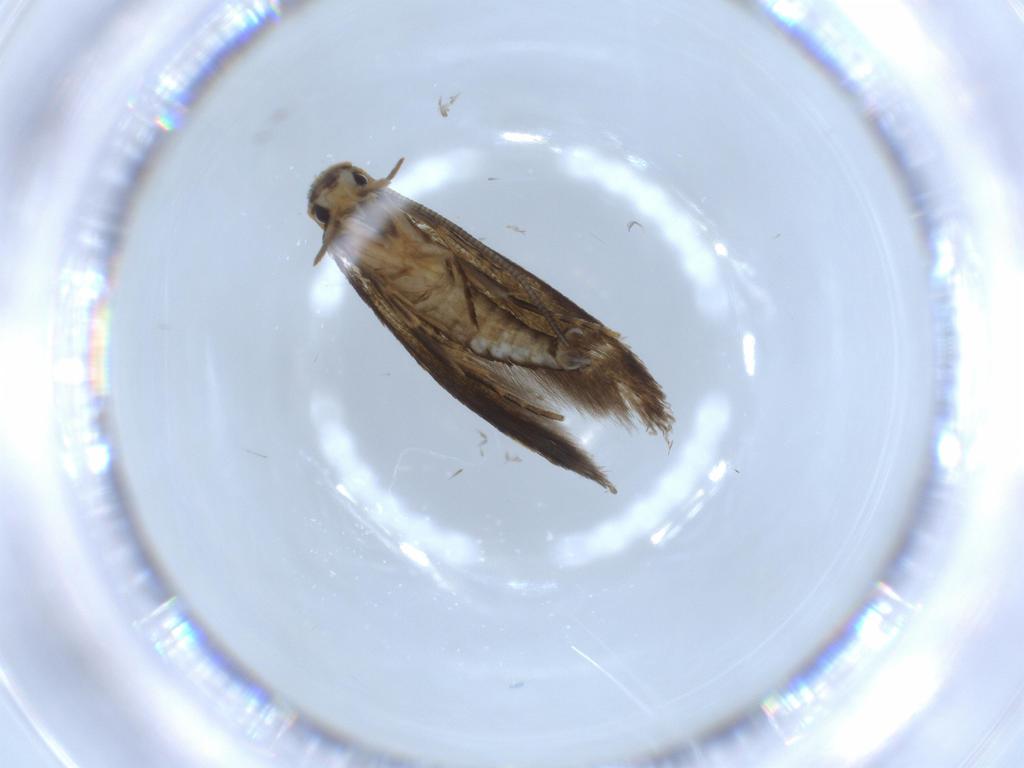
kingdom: Animalia
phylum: Arthropoda
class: Insecta
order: Lepidoptera
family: Tineidae
